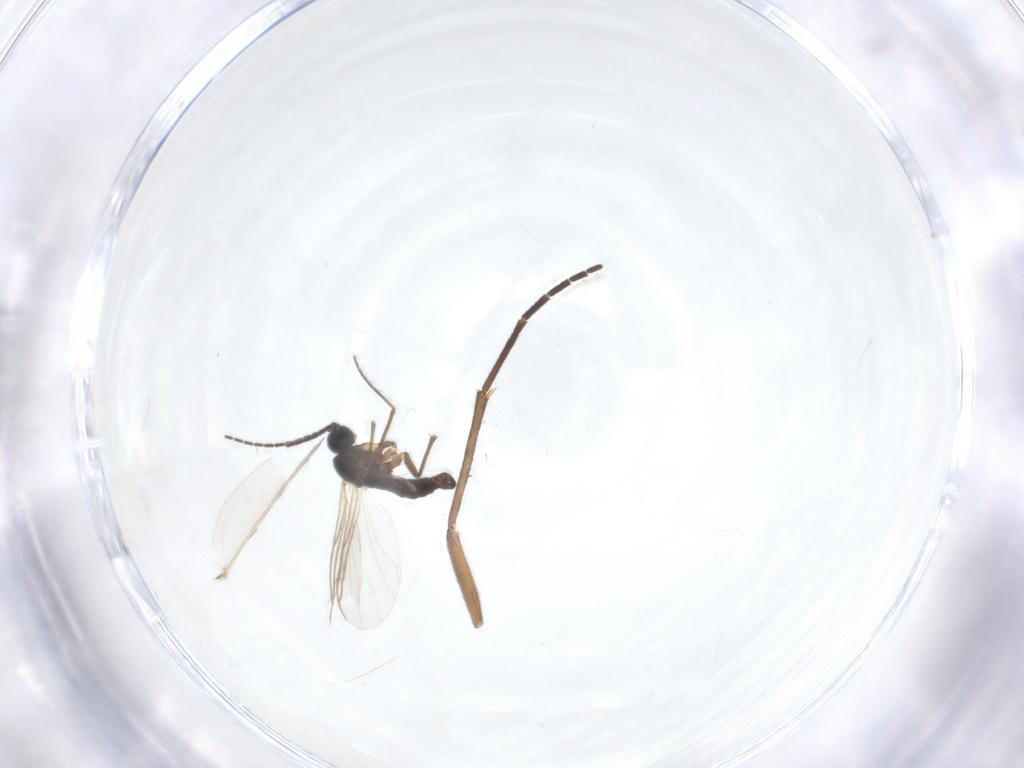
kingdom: Animalia
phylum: Arthropoda
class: Insecta
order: Diptera
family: Sciaridae
